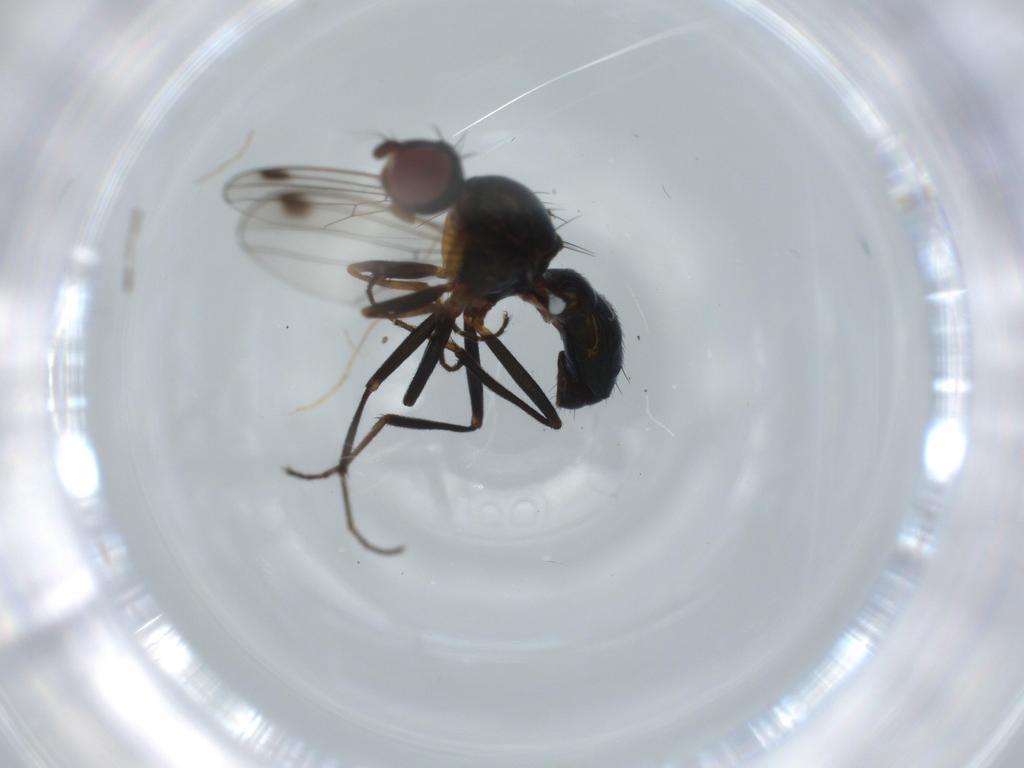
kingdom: Animalia
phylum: Arthropoda
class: Insecta
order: Diptera
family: Sepsidae
